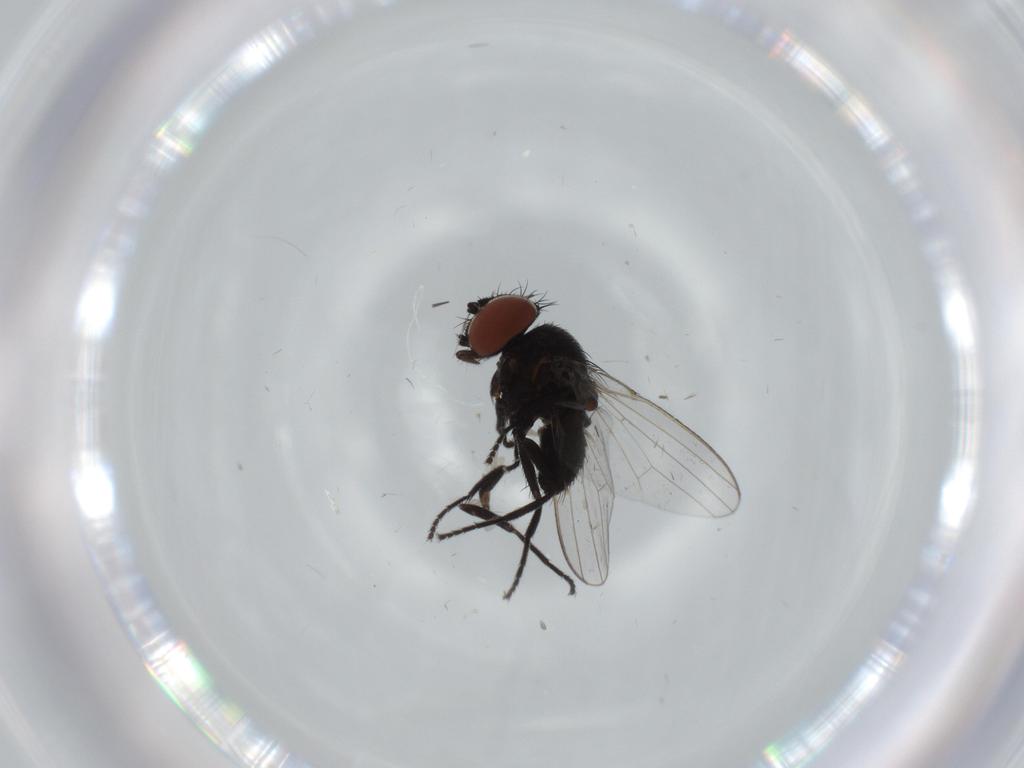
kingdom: Animalia
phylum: Arthropoda
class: Insecta
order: Diptera
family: Milichiidae
